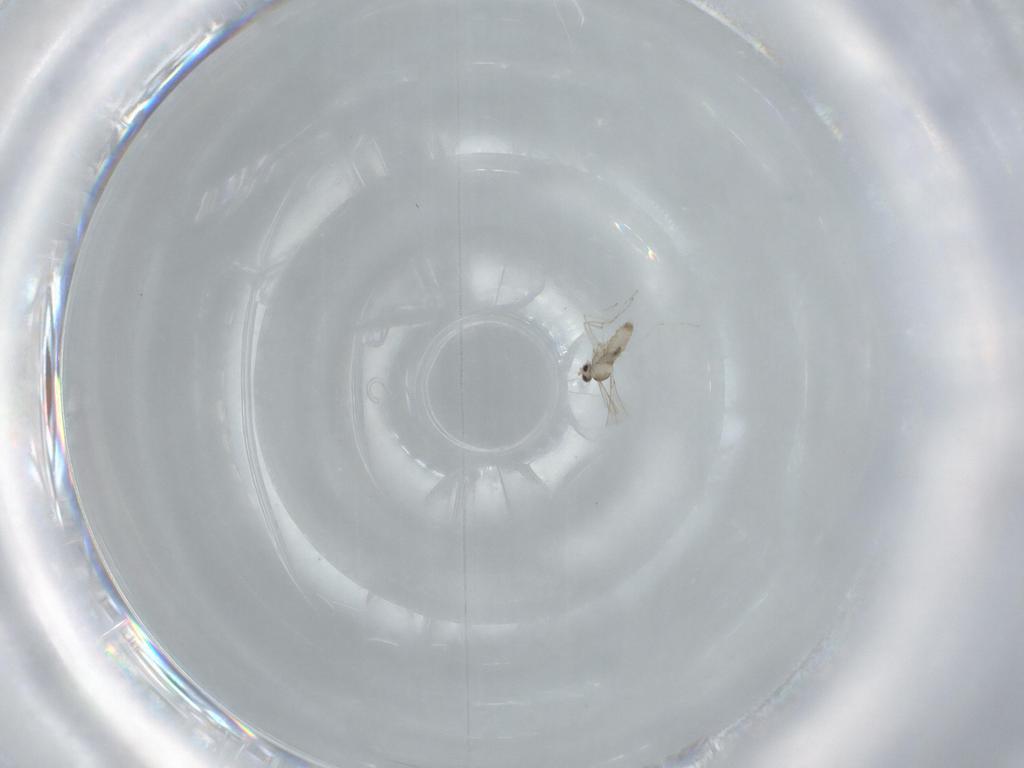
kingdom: Animalia
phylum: Arthropoda
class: Insecta
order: Diptera
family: Cecidomyiidae
